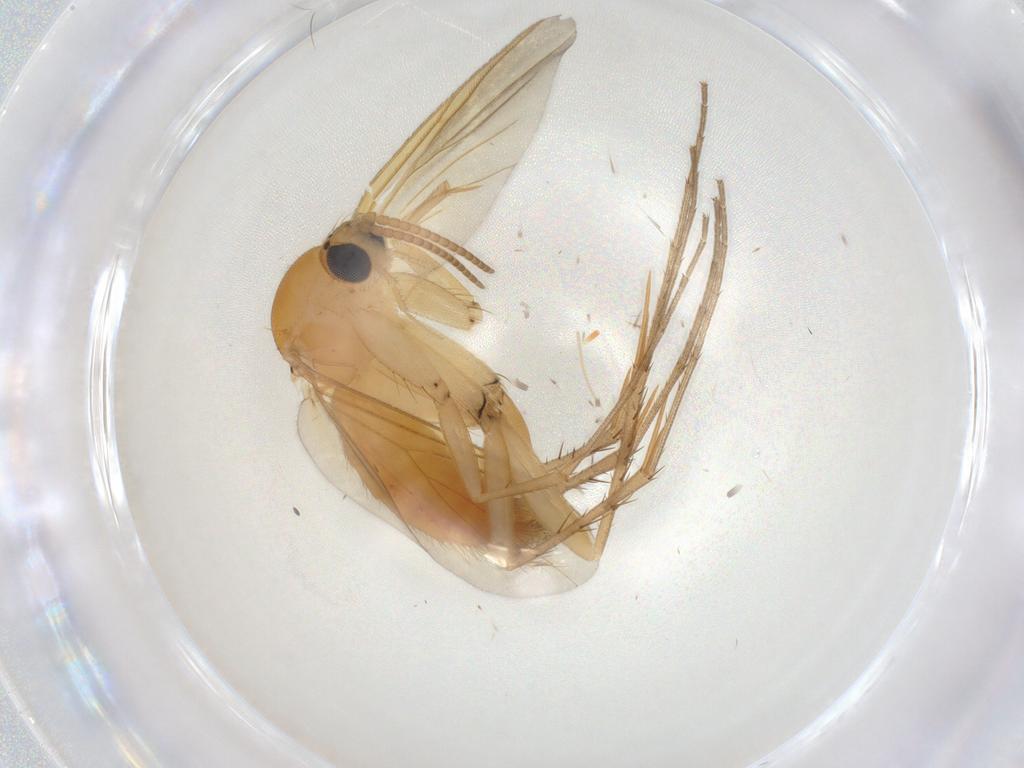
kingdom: Animalia
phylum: Arthropoda
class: Insecta
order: Diptera
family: Mycetophilidae
